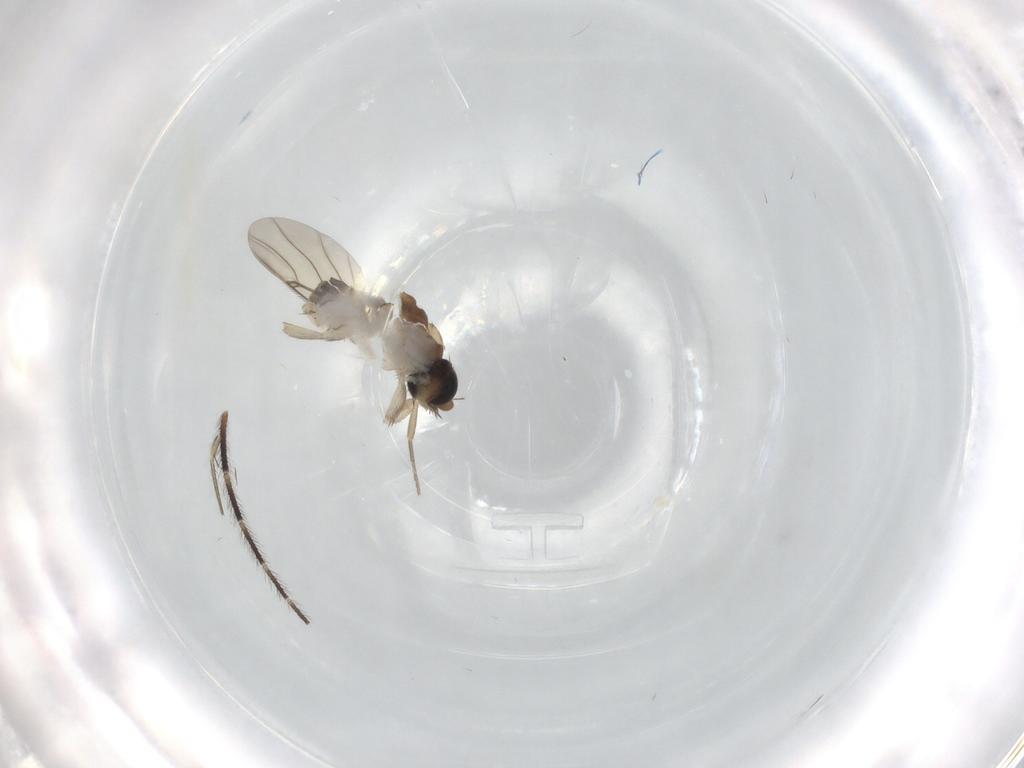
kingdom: Animalia
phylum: Arthropoda
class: Insecta
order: Diptera
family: Phoridae
